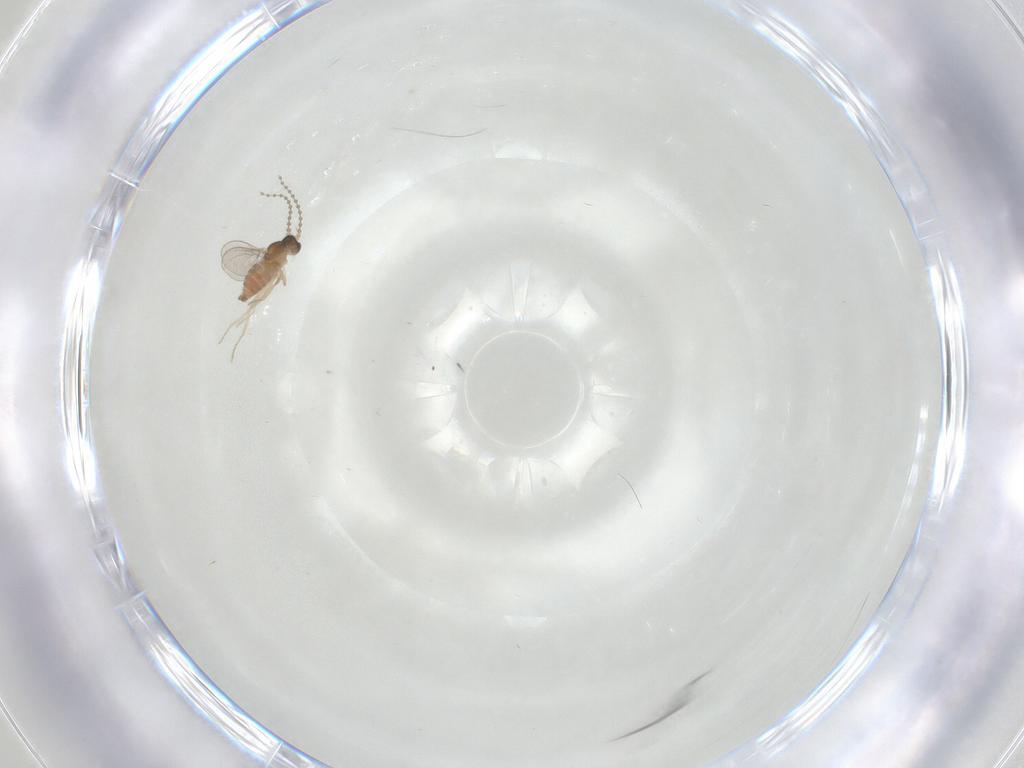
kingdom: Animalia
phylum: Arthropoda
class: Insecta
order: Diptera
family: Cecidomyiidae
